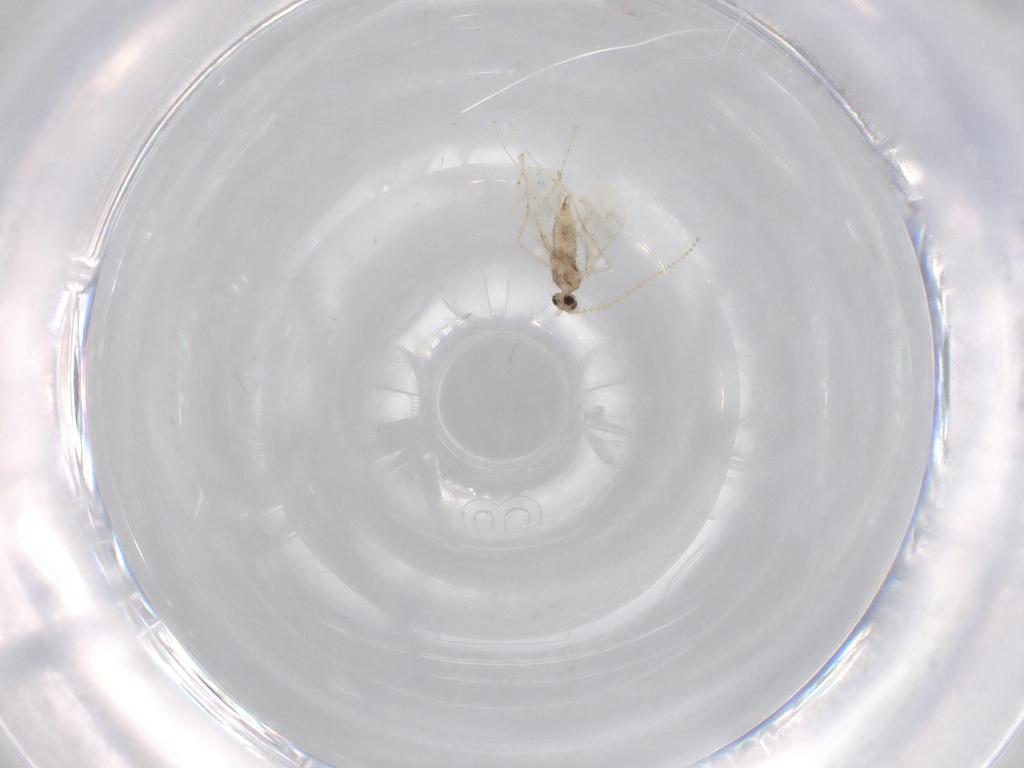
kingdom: Animalia
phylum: Arthropoda
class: Insecta
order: Diptera
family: Cecidomyiidae
